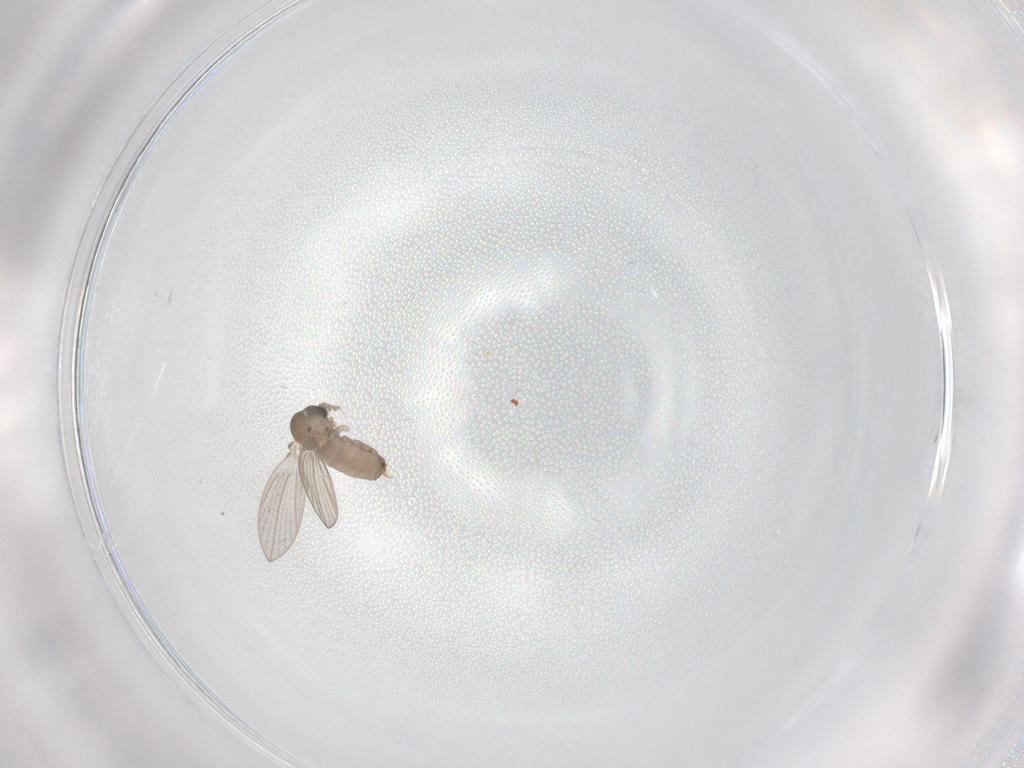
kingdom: Animalia
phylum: Arthropoda
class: Insecta
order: Diptera
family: Psychodidae
